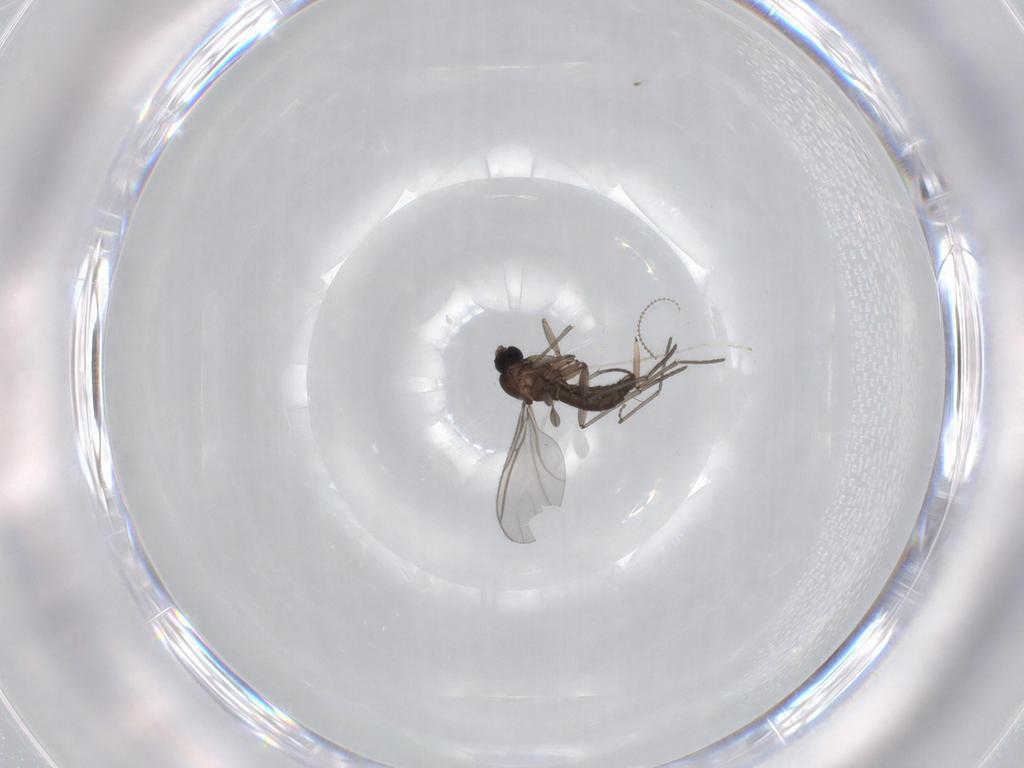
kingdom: Animalia
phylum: Arthropoda
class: Insecta
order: Diptera
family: Sciaridae
